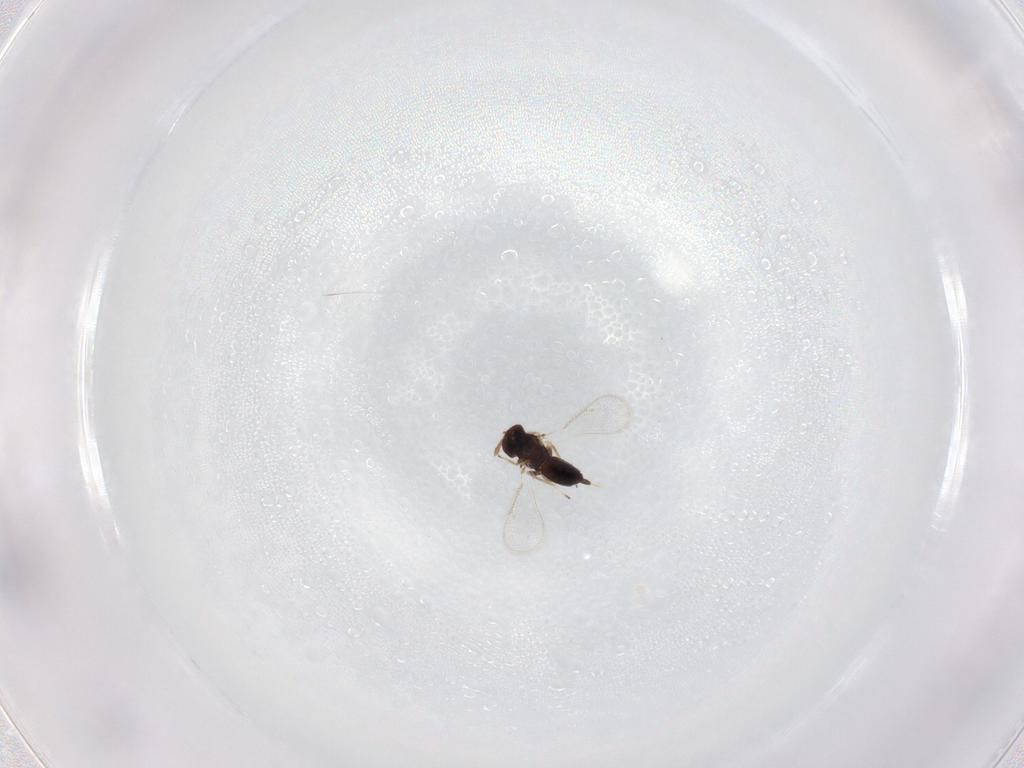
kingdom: Animalia
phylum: Arthropoda
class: Insecta
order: Hymenoptera
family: Eulophidae
